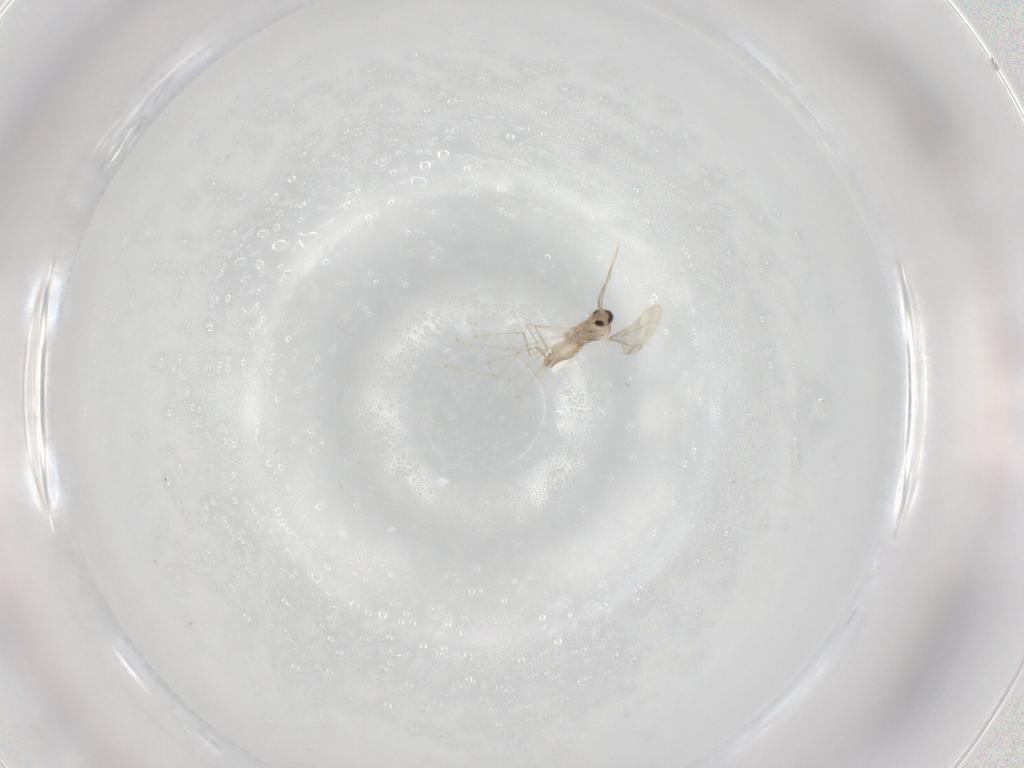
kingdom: Animalia
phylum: Arthropoda
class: Insecta
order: Diptera
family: Cecidomyiidae
